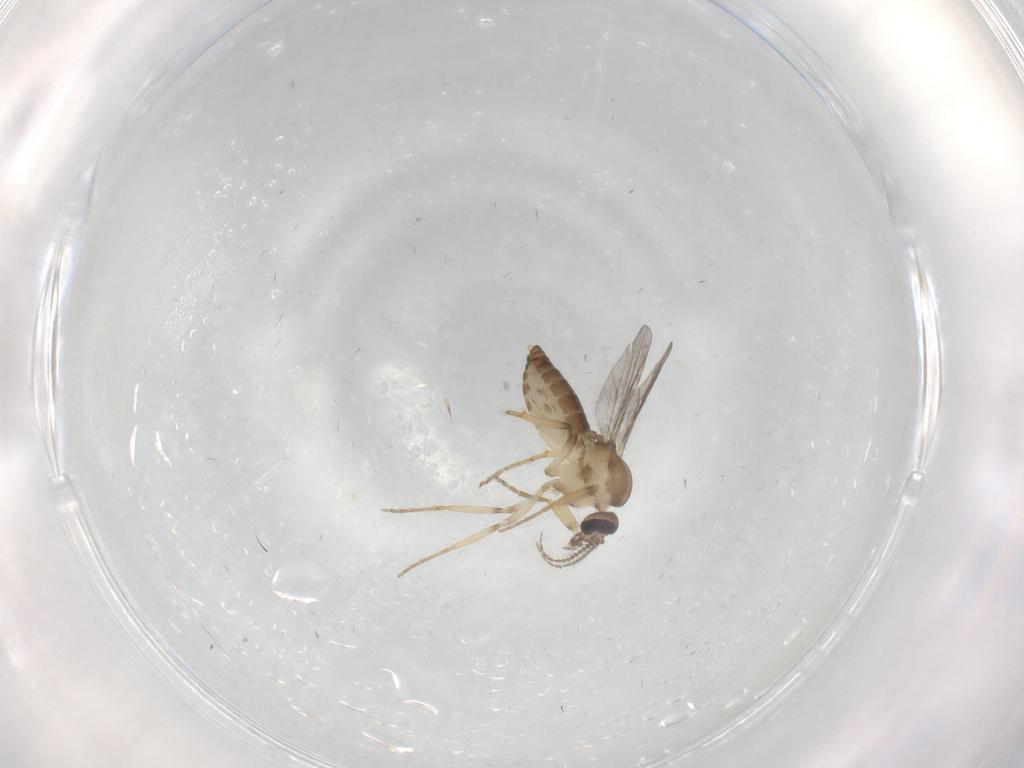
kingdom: Animalia
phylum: Arthropoda
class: Insecta
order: Diptera
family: Ceratopogonidae
